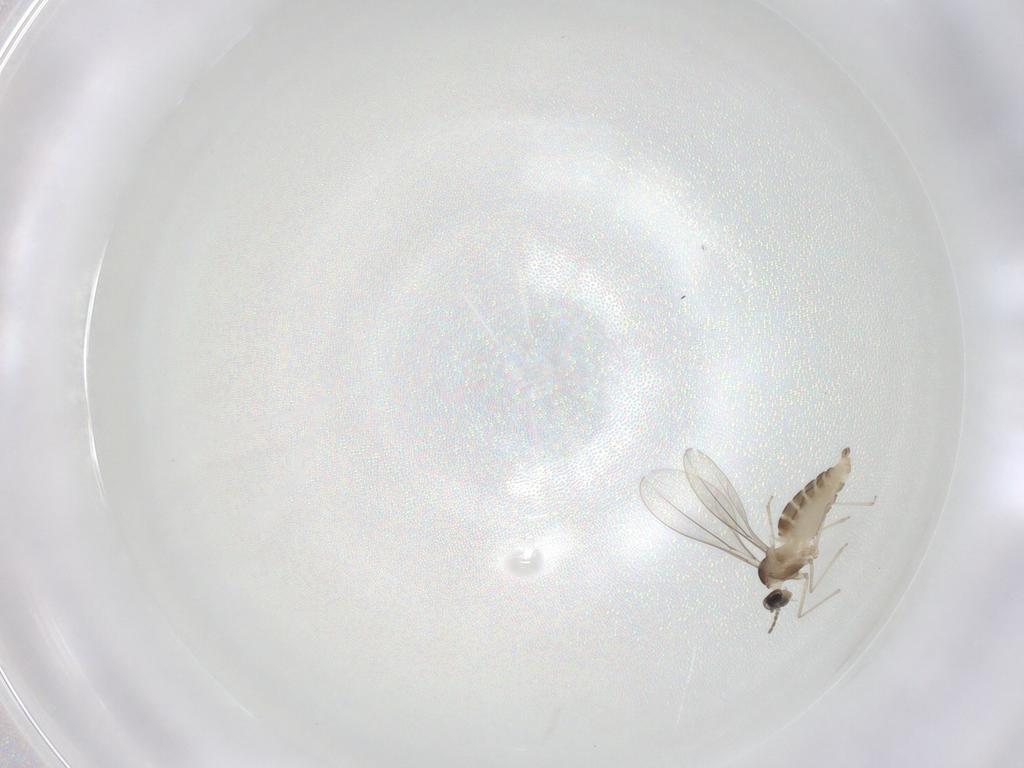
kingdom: Animalia
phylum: Arthropoda
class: Insecta
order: Diptera
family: Cecidomyiidae
